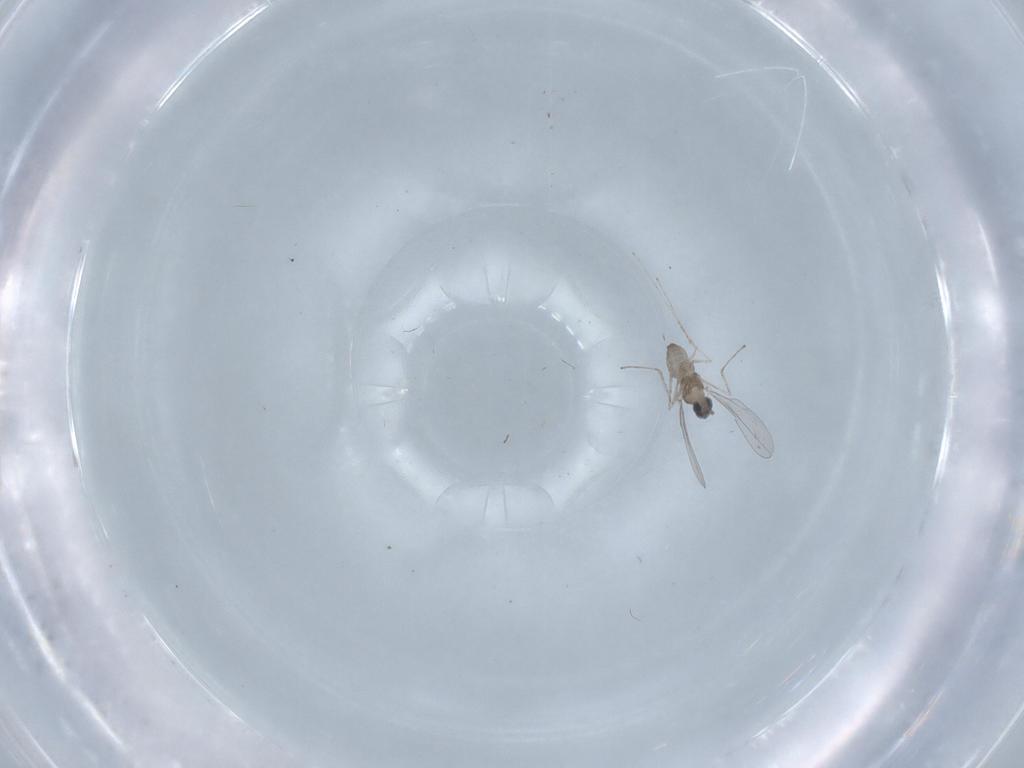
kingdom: Animalia
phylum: Arthropoda
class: Insecta
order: Diptera
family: Cecidomyiidae
